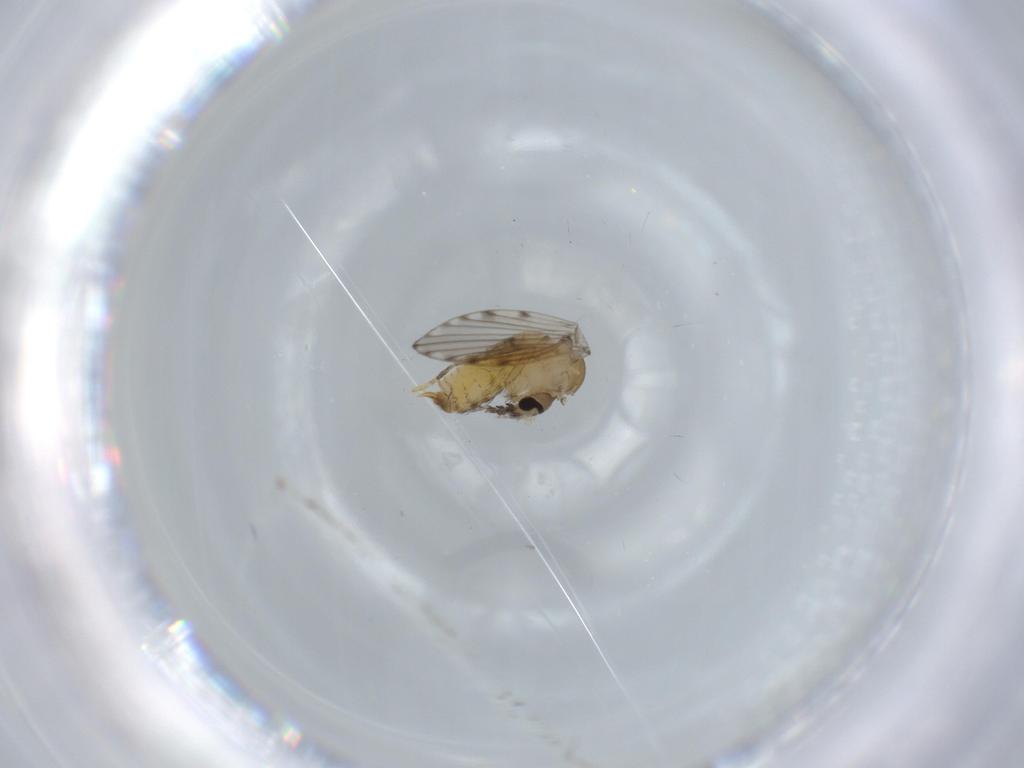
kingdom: Animalia
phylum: Arthropoda
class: Insecta
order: Diptera
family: Psychodidae
